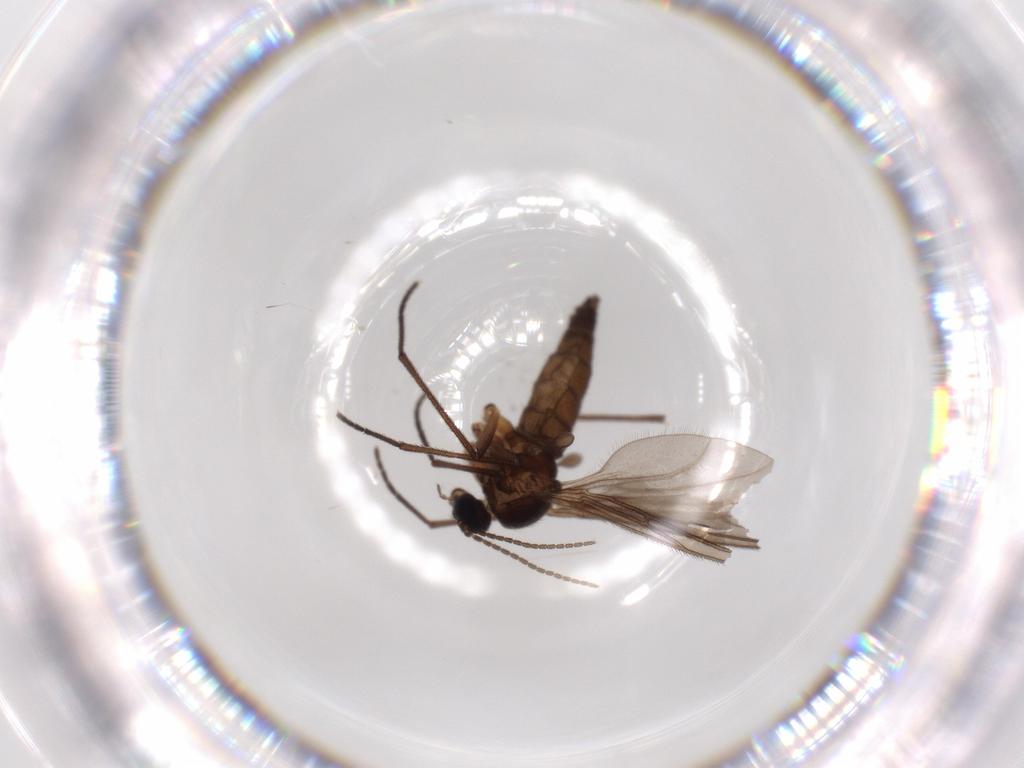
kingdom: Animalia
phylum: Arthropoda
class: Insecta
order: Diptera
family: Sciaridae
